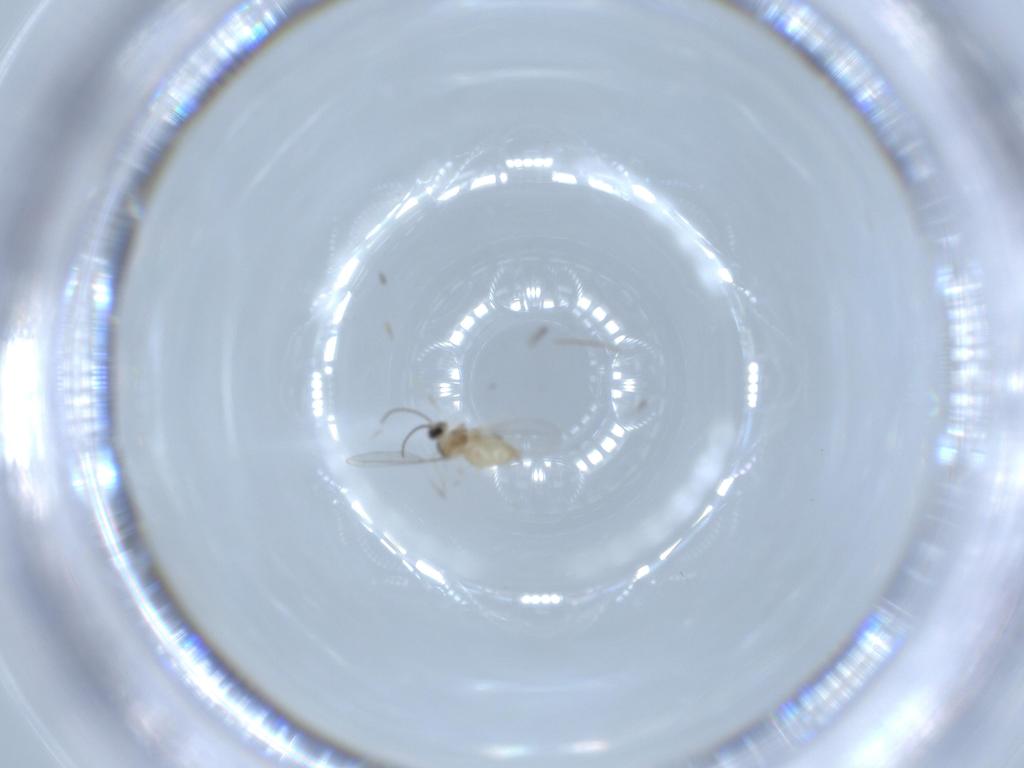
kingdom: Animalia
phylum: Arthropoda
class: Insecta
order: Diptera
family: Cecidomyiidae
